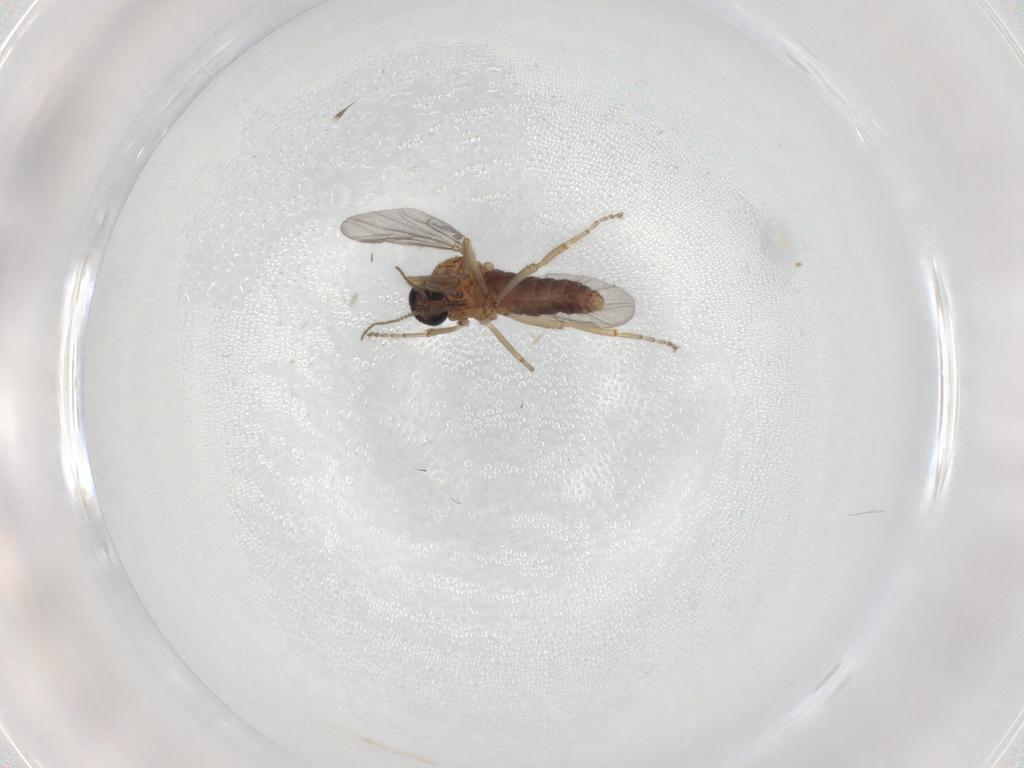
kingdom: Animalia
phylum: Arthropoda
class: Insecta
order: Diptera
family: Ceratopogonidae
